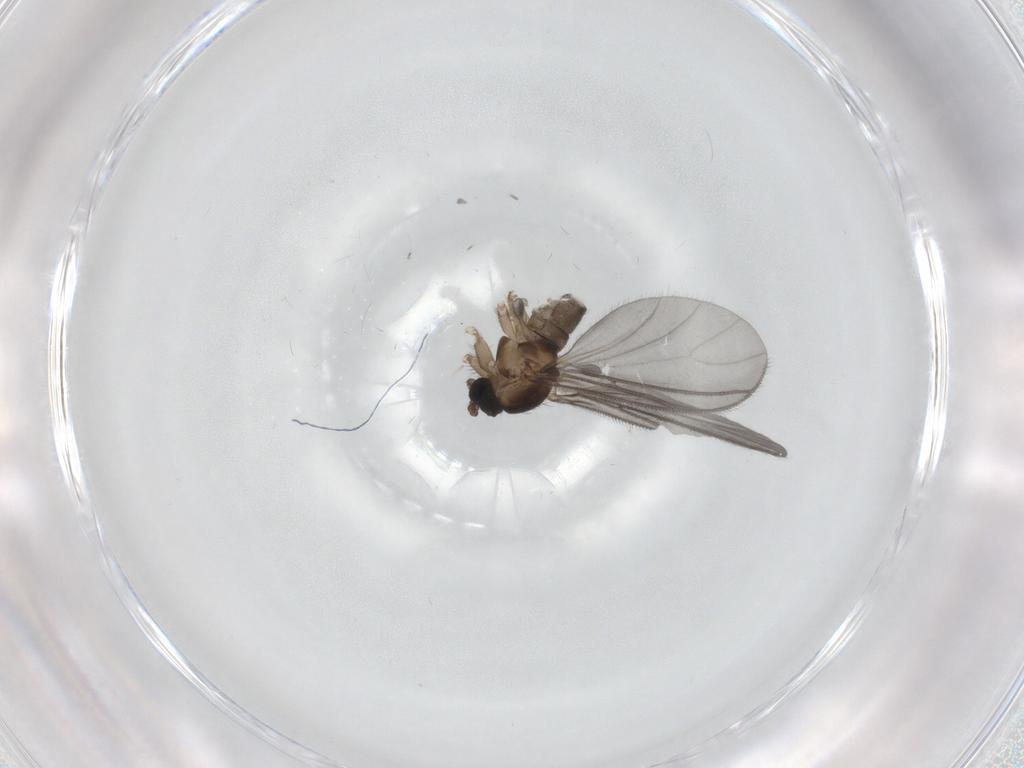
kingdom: Animalia
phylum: Arthropoda
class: Insecta
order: Diptera
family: Sciaridae
